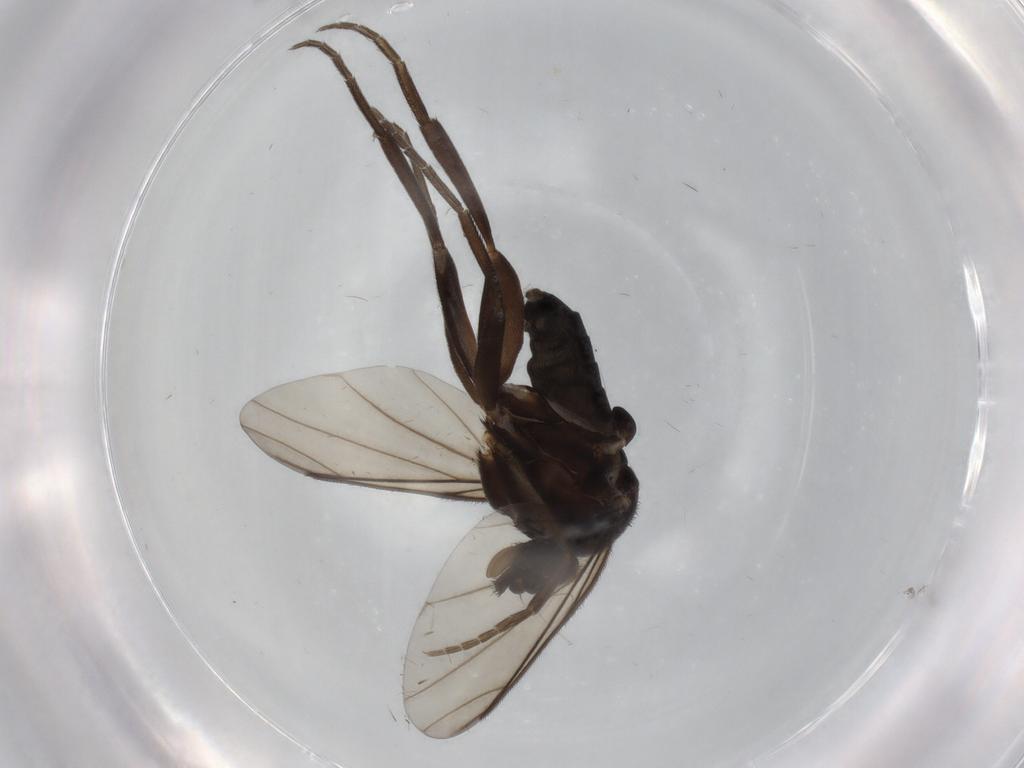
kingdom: Animalia
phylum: Arthropoda
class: Insecta
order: Diptera
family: Phoridae
